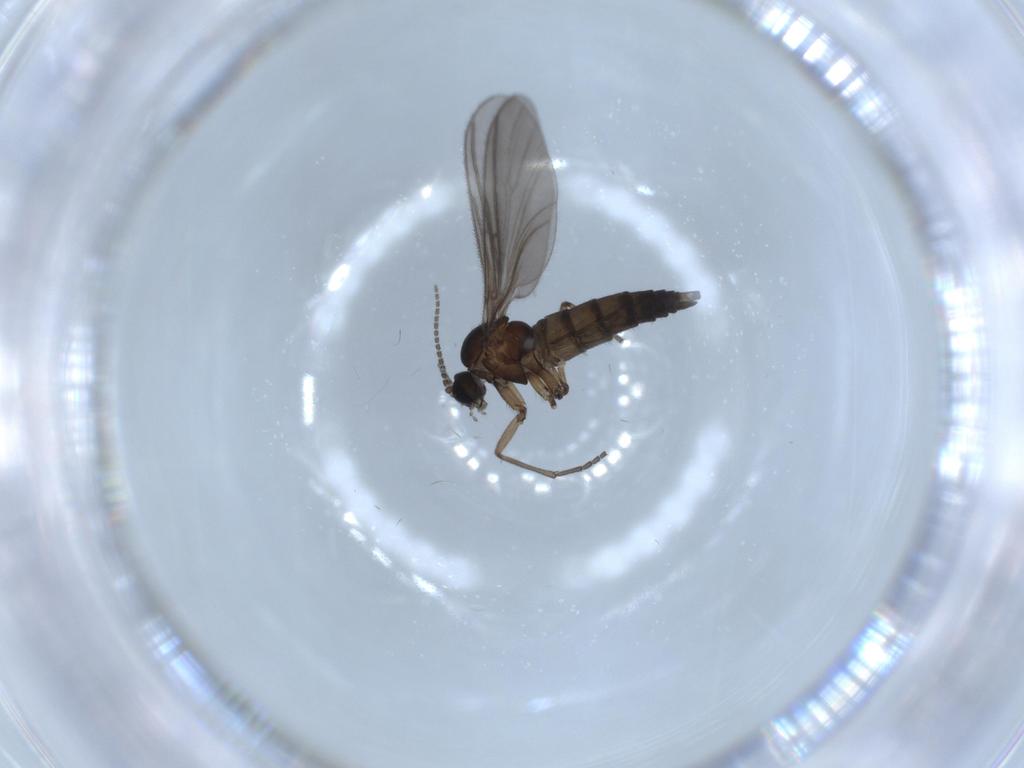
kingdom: Animalia
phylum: Arthropoda
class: Insecta
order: Diptera
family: Sciaridae
